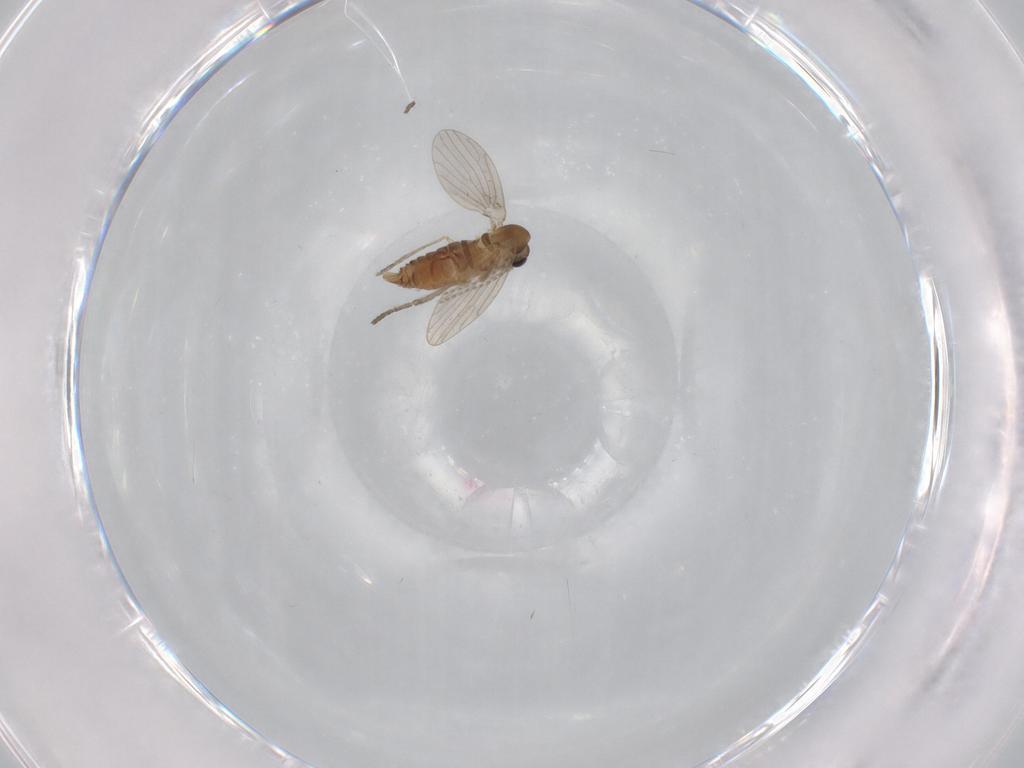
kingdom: Animalia
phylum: Arthropoda
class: Insecta
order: Diptera
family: Psychodidae
